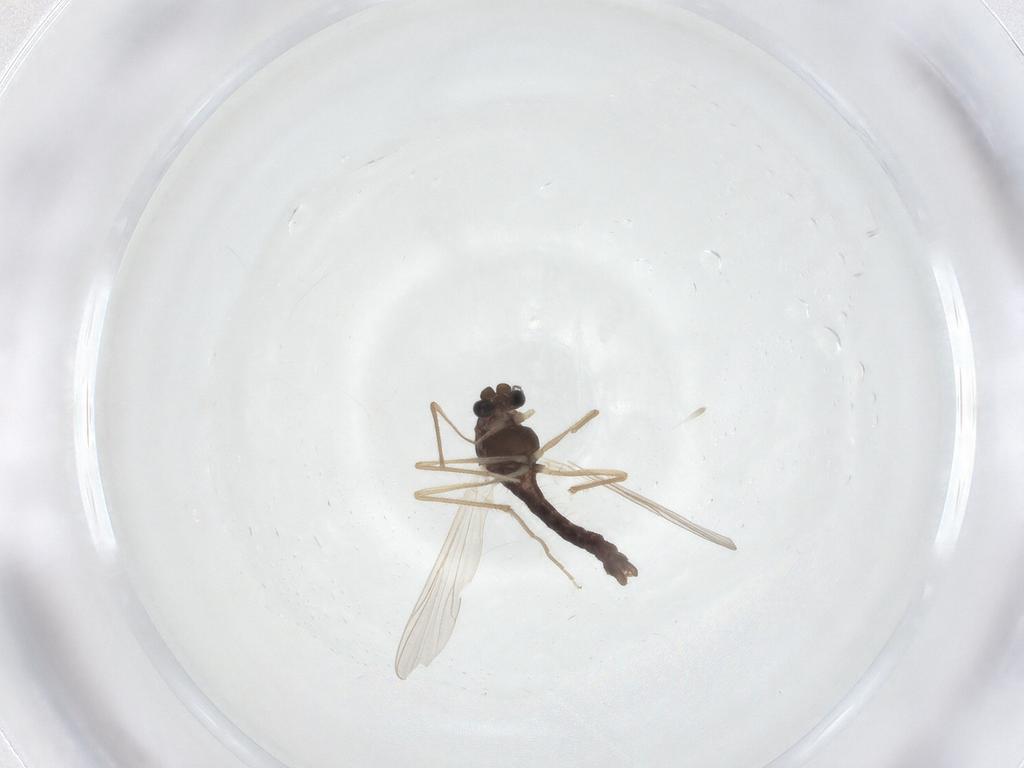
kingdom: Animalia
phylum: Arthropoda
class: Insecta
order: Diptera
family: Chironomidae
